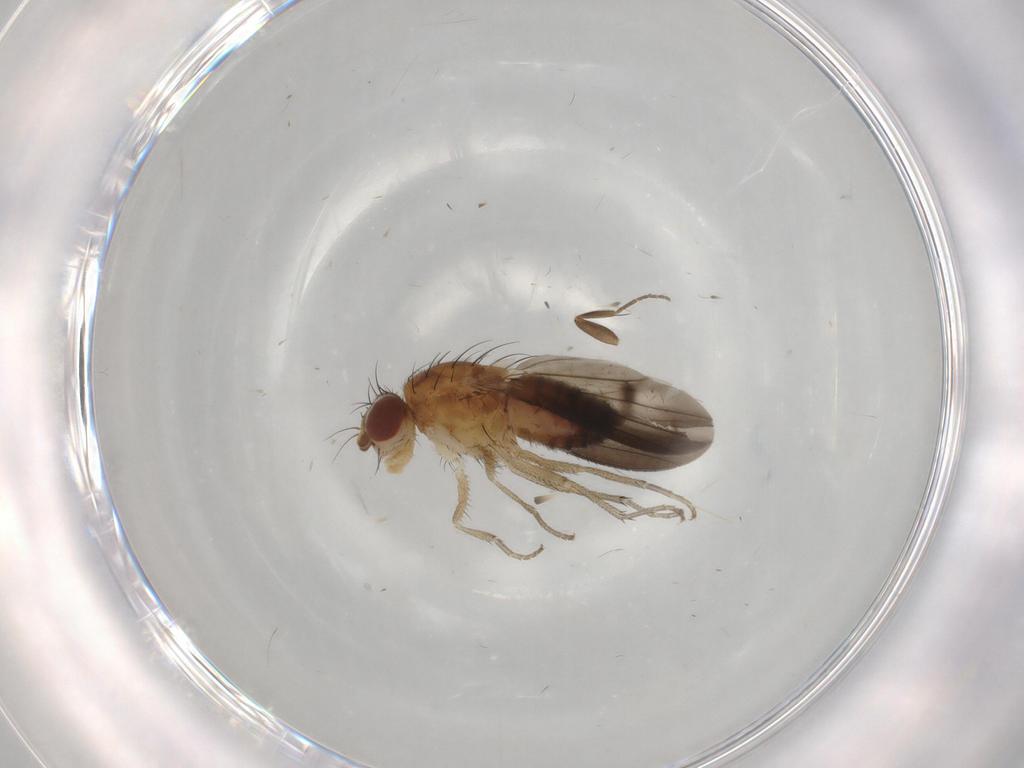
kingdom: Animalia
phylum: Arthropoda
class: Insecta
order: Diptera
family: Heleomyzidae
